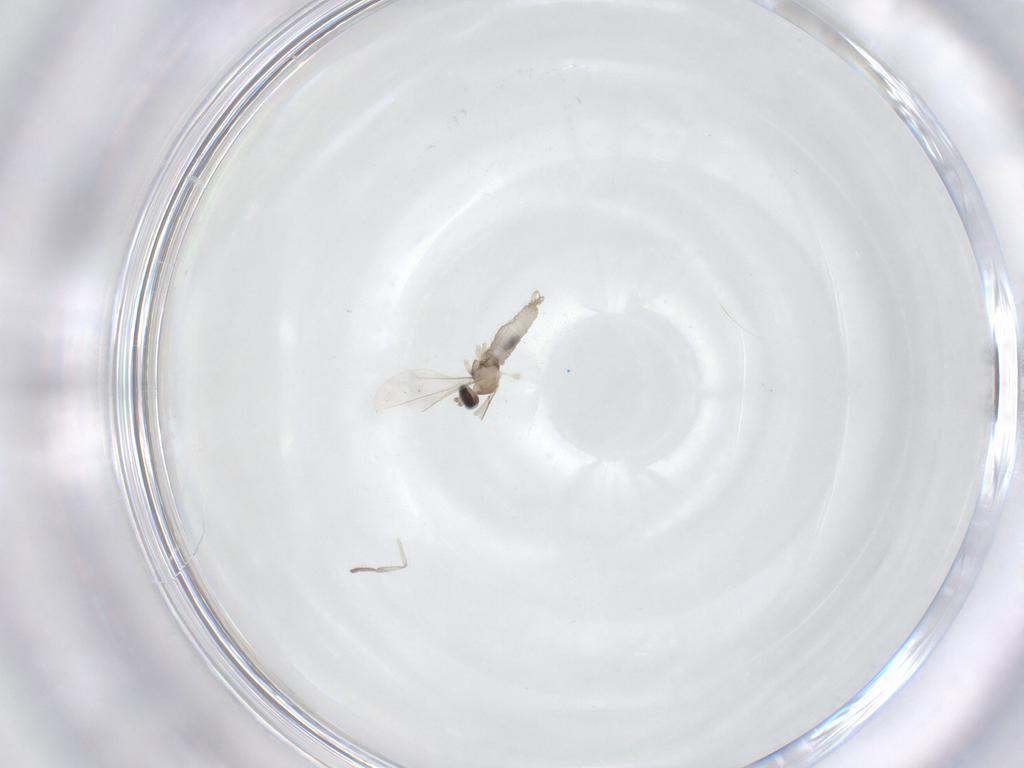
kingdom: Animalia
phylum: Arthropoda
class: Insecta
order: Diptera
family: Cecidomyiidae
